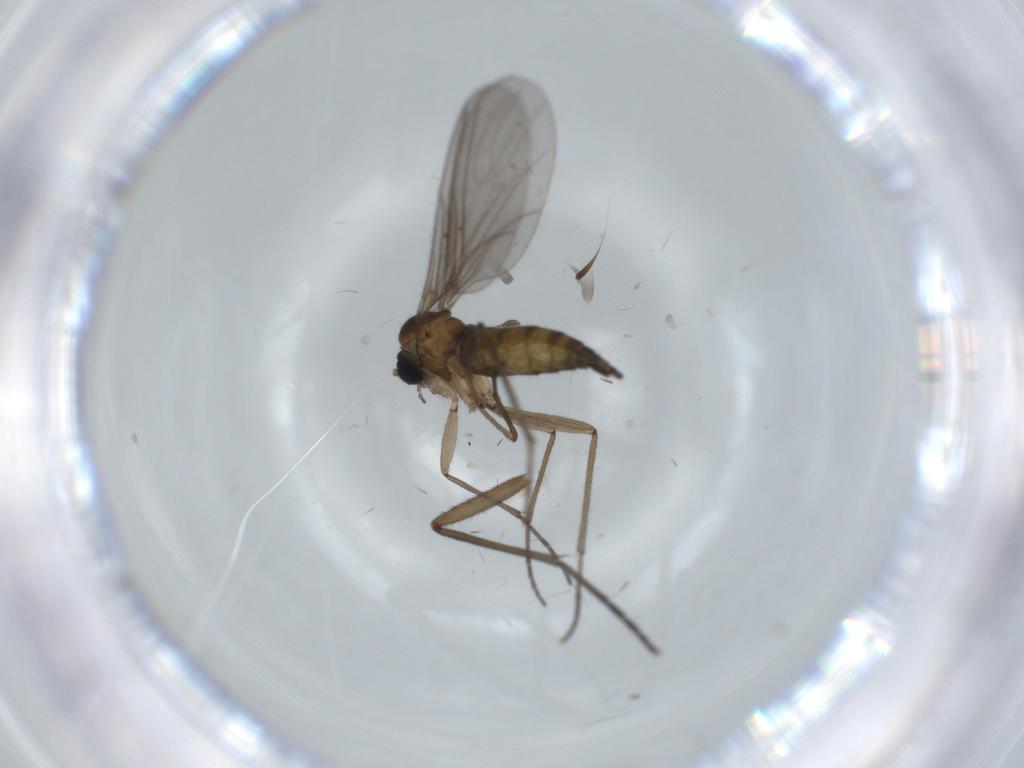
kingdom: Animalia
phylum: Arthropoda
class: Insecta
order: Diptera
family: Sciaridae
